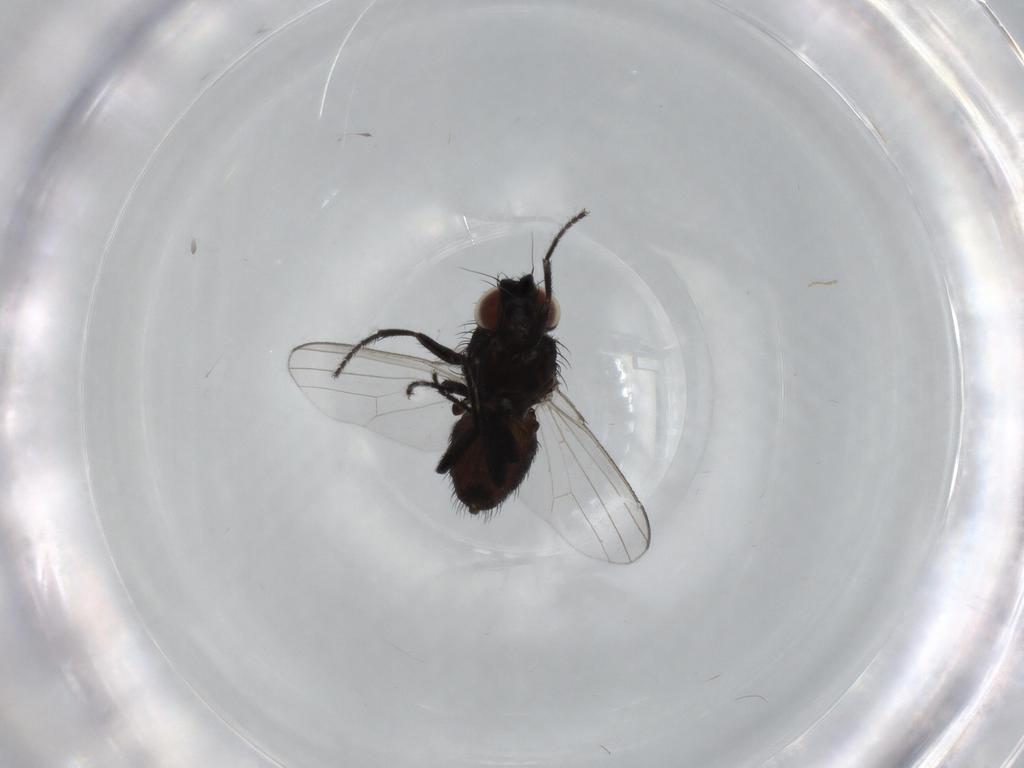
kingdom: Animalia
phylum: Arthropoda
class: Insecta
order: Diptera
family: Milichiidae
